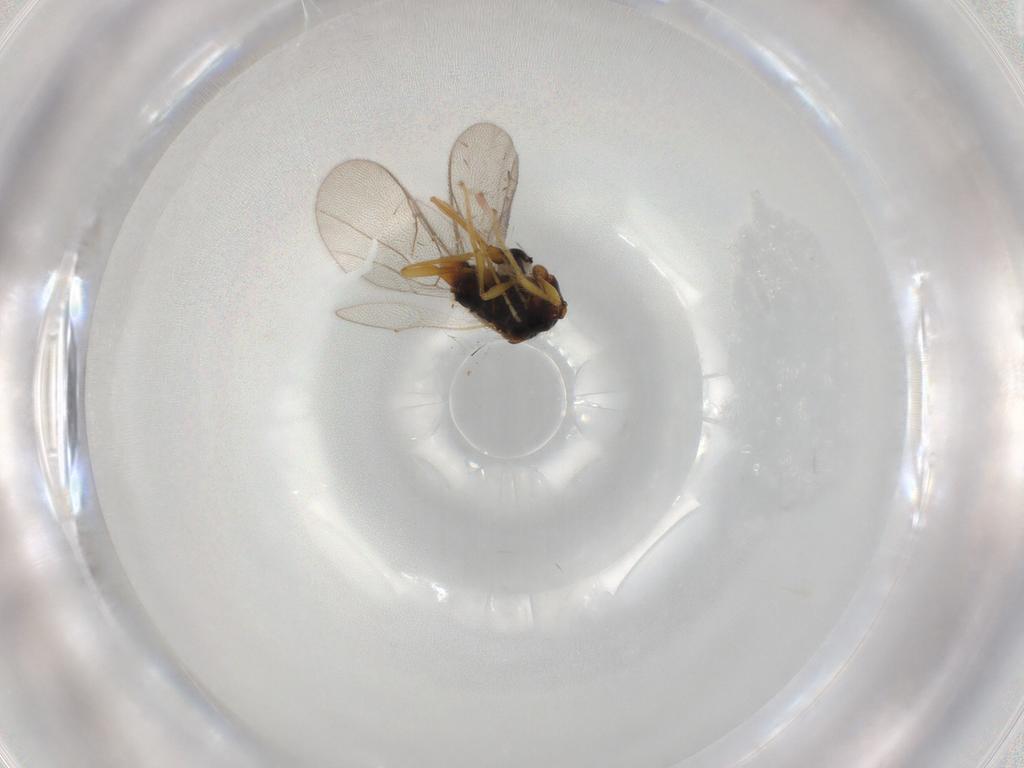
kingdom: Animalia
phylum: Arthropoda
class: Insecta
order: Hymenoptera
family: Diapriidae
